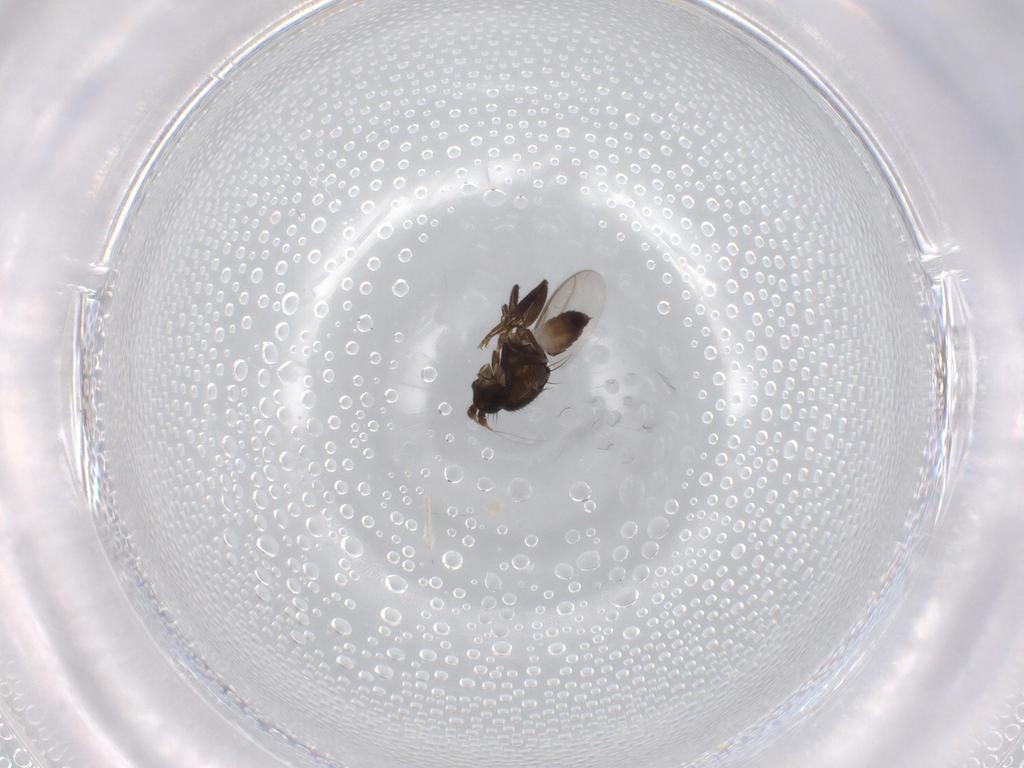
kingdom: Animalia
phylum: Arthropoda
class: Insecta
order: Diptera
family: Sphaeroceridae
